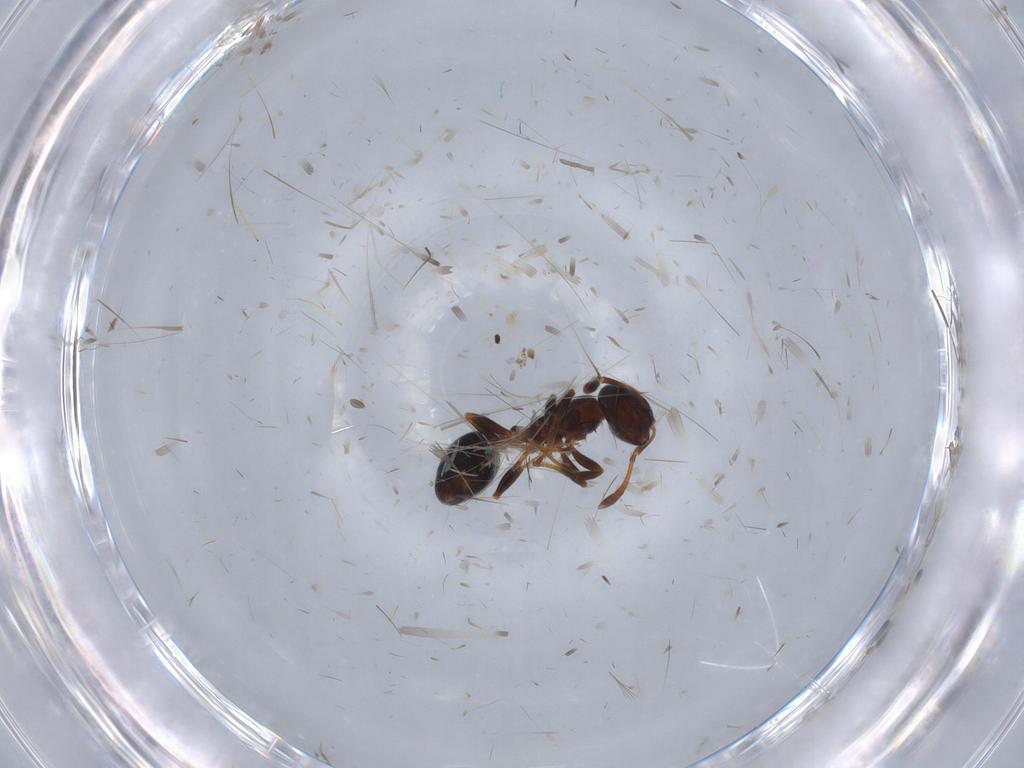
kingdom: Animalia
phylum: Arthropoda
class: Insecta
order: Hymenoptera
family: Formicidae
